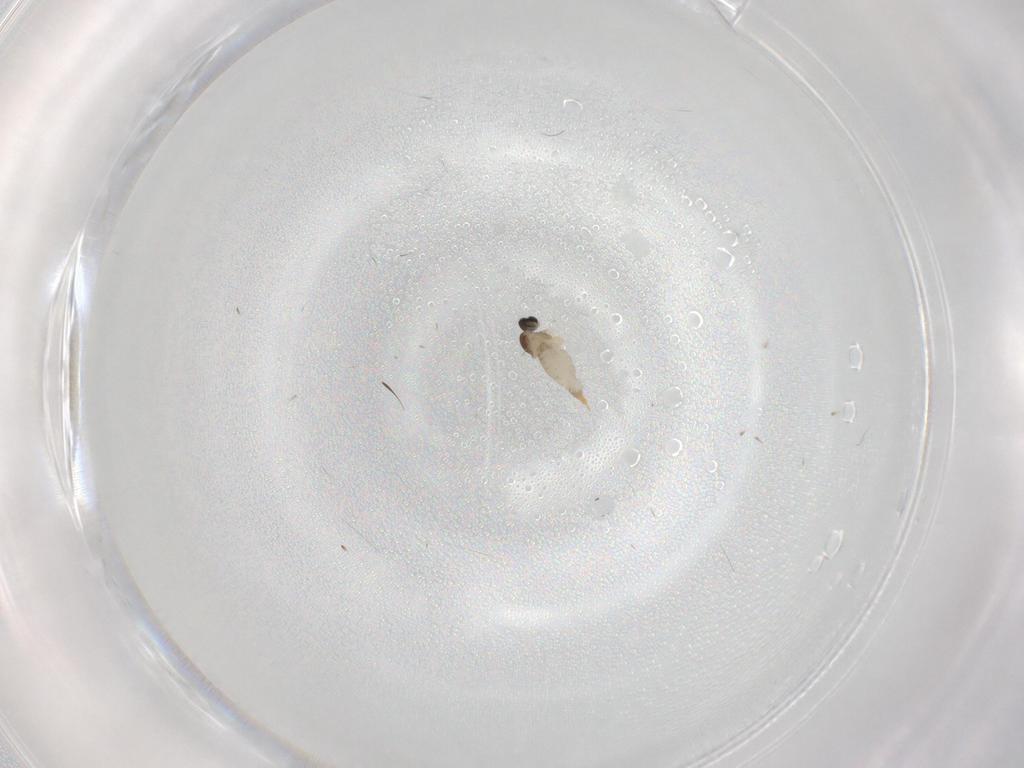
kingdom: Animalia
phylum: Arthropoda
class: Insecta
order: Diptera
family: Cecidomyiidae
